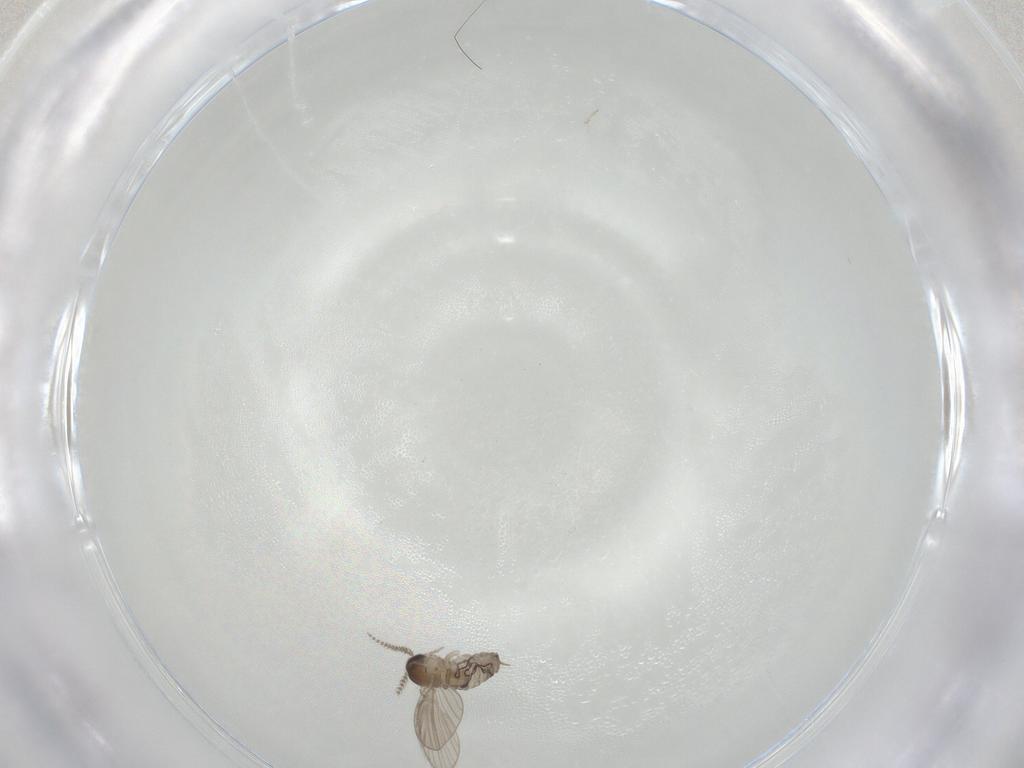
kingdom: Animalia
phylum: Arthropoda
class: Insecta
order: Diptera
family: Psychodidae
